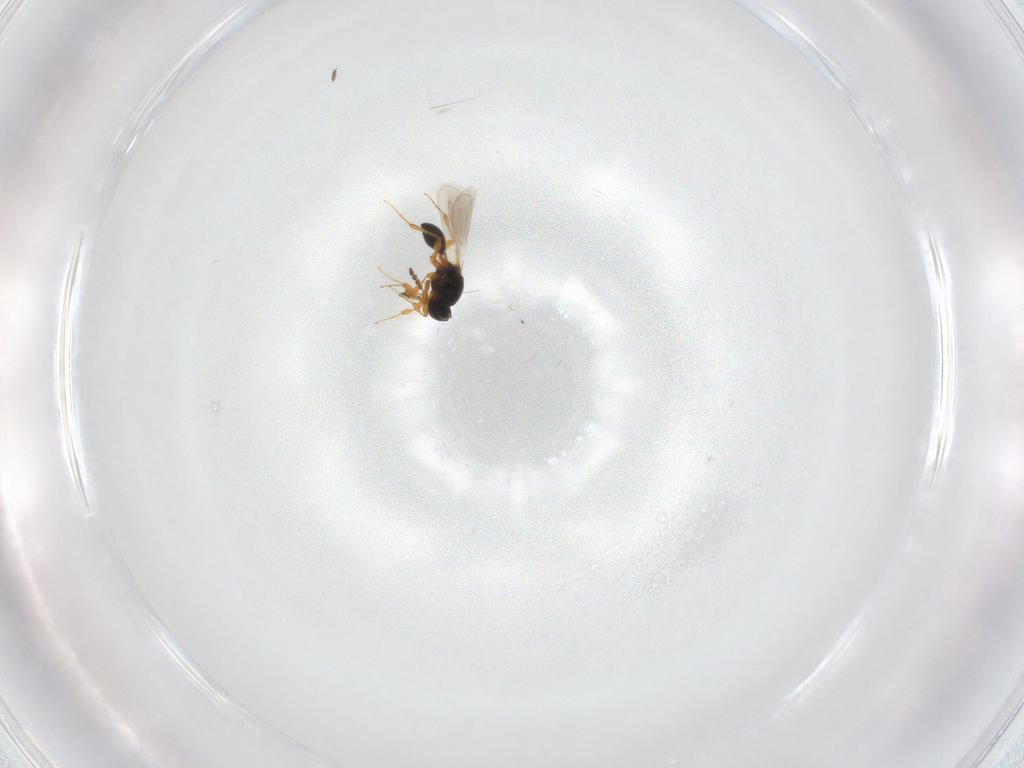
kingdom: Animalia
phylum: Arthropoda
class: Insecta
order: Hymenoptera
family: Platygastridae
